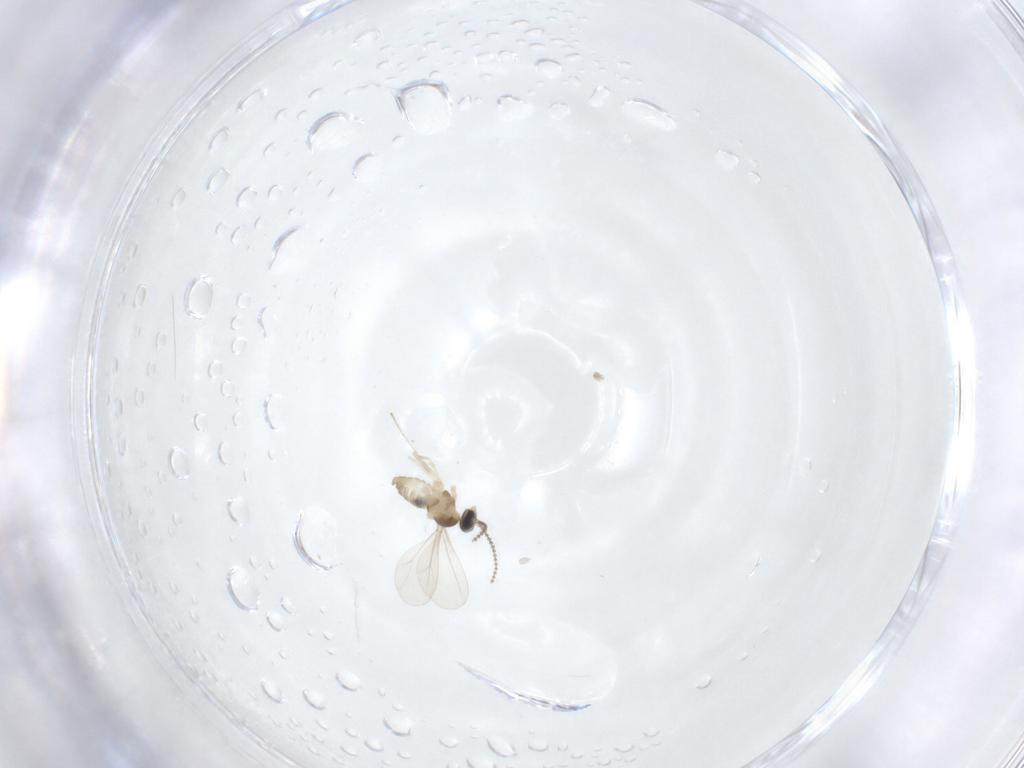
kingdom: Animalia
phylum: Arthropoda
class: Insecta
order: Diptera
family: Cecidomyiidae
